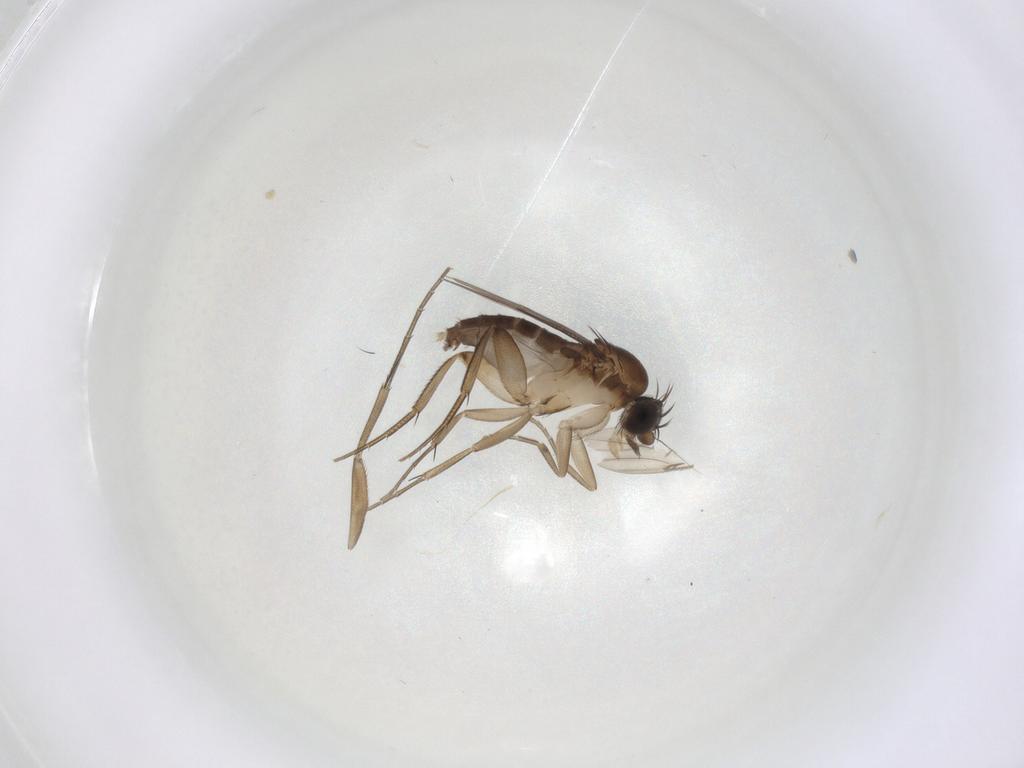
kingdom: Animalia
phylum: Arthropoda
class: Insecta
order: Diptera
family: Phoridae
